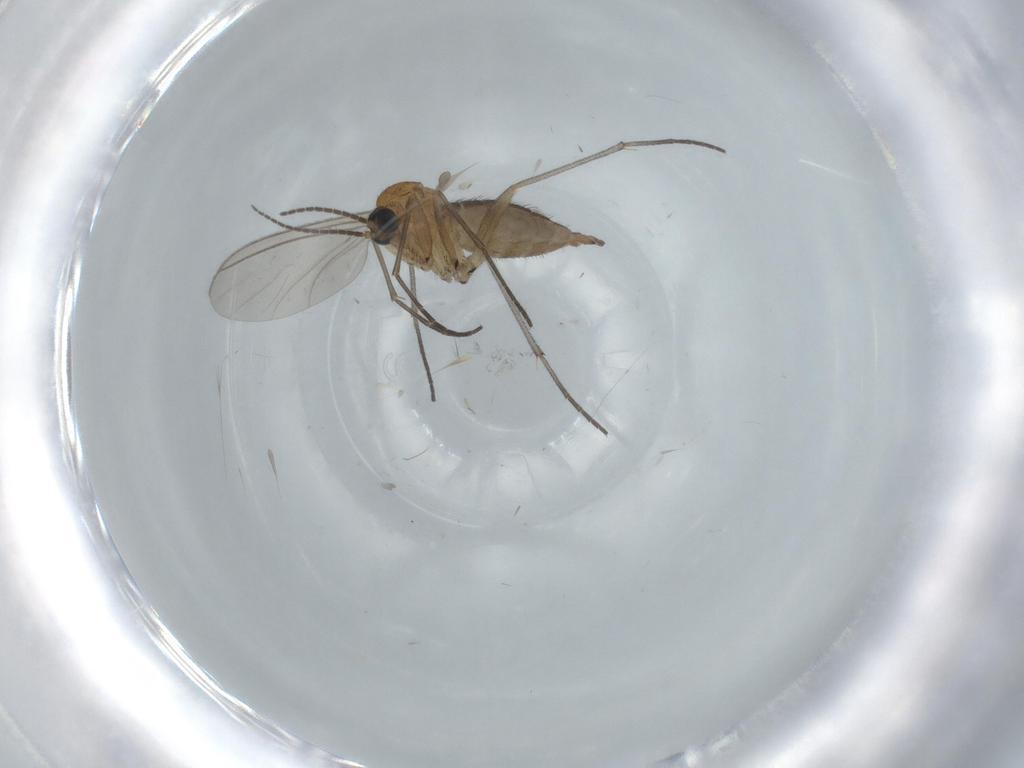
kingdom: Animalia
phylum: Arthropoda
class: Insecta
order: Diptera
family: Sciaridae
